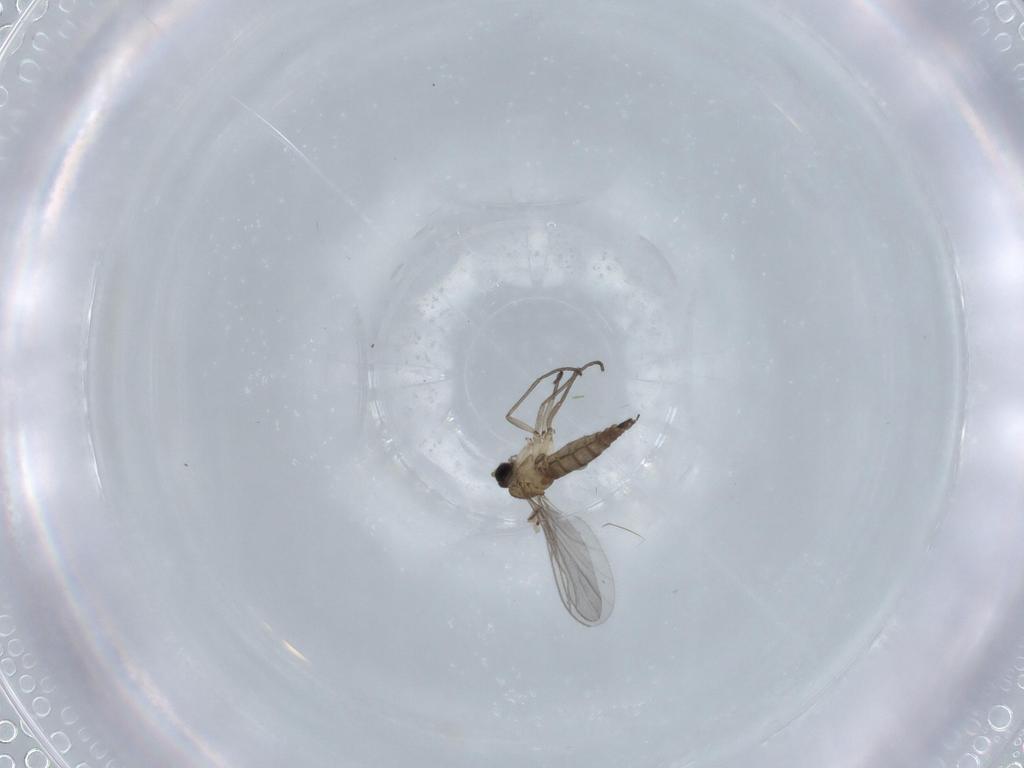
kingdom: Animalia
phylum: Arthropoda
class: Insecta
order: Diptera
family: Sciaridae
